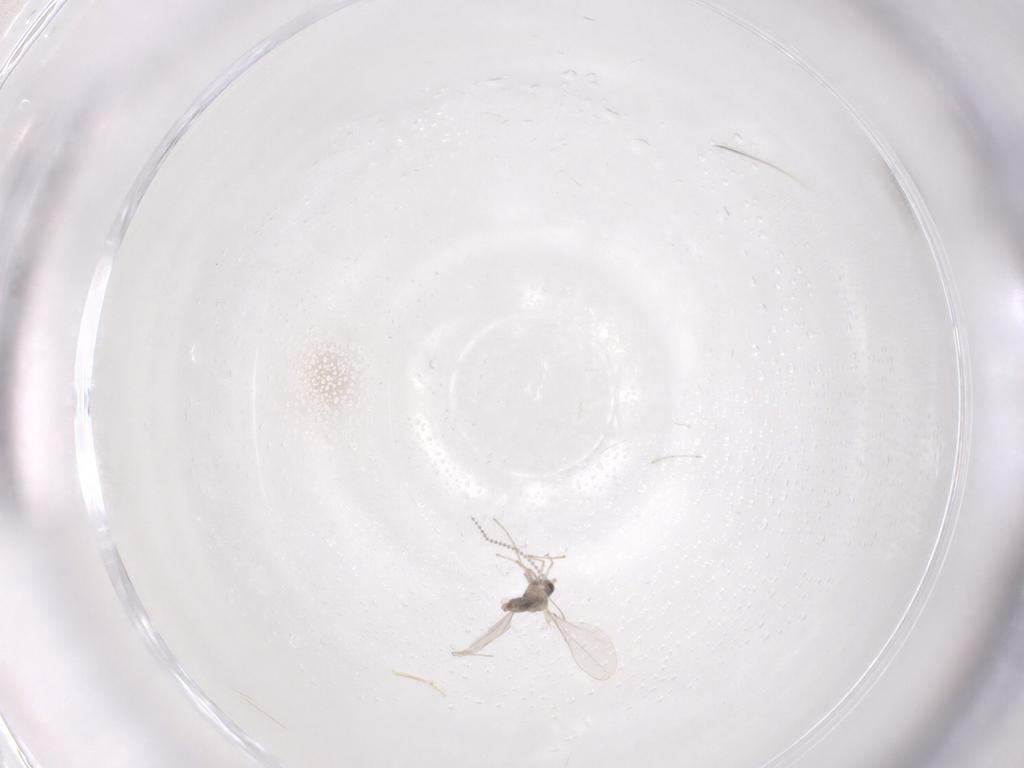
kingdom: Animalia
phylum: Arthropoda
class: Insecta
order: Diptera
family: Cecidomyiidae
